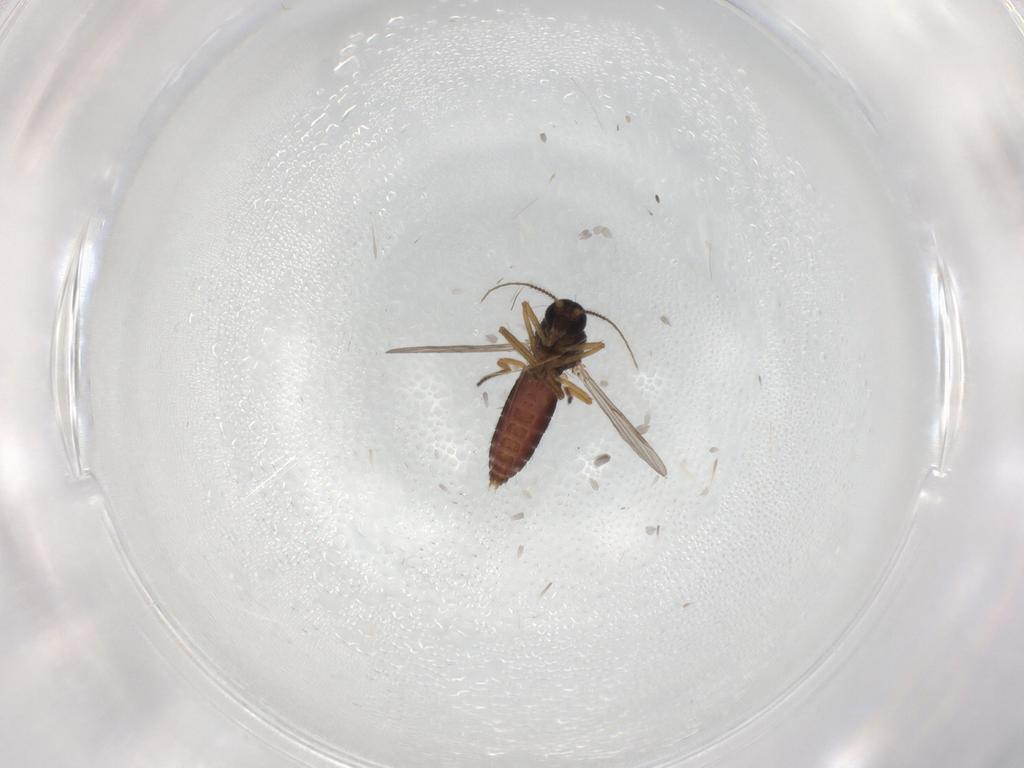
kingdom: Animalia
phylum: Arthropoda
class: Insecta
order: Diptera
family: Ceratopogonidae
